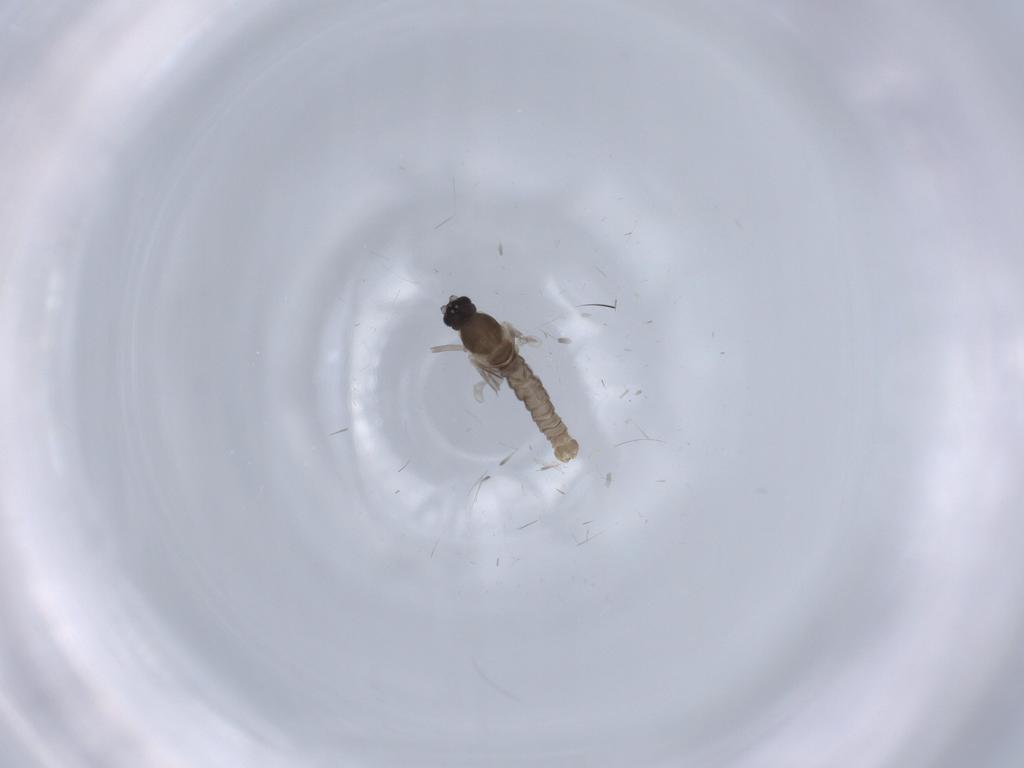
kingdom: Animalia
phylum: Arthropoda
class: Insecta
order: Diptera
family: Cecidomyiidae
